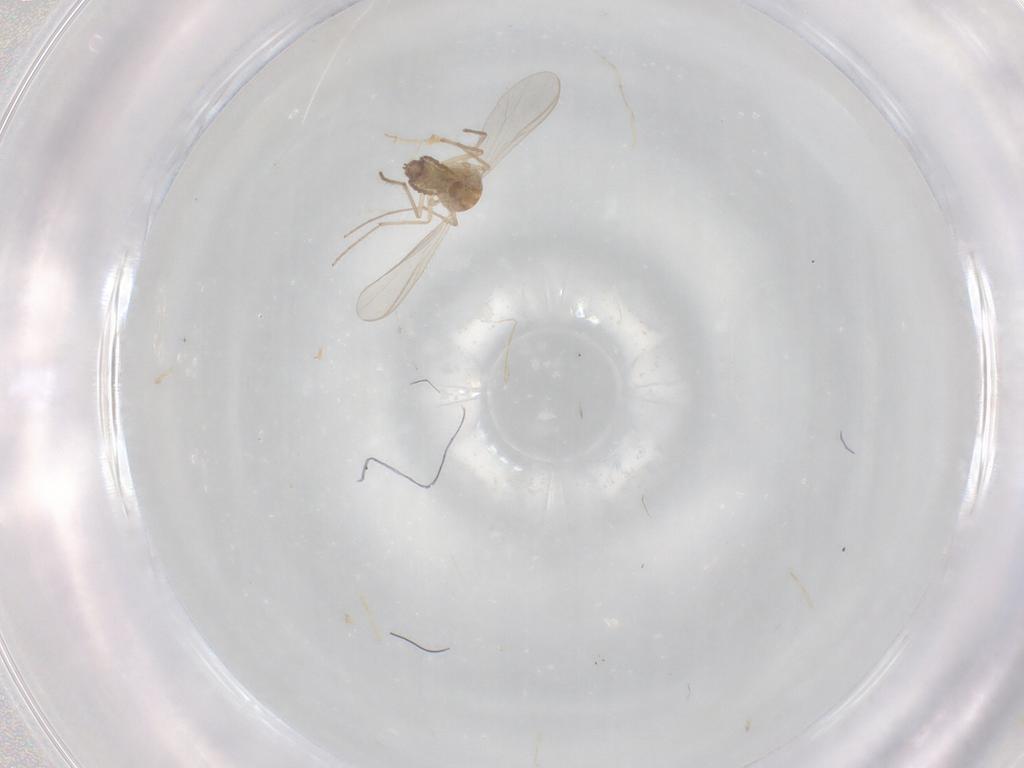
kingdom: Animalia
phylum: Arthropoda
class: Insecta
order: Diptera
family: Chironomidae
